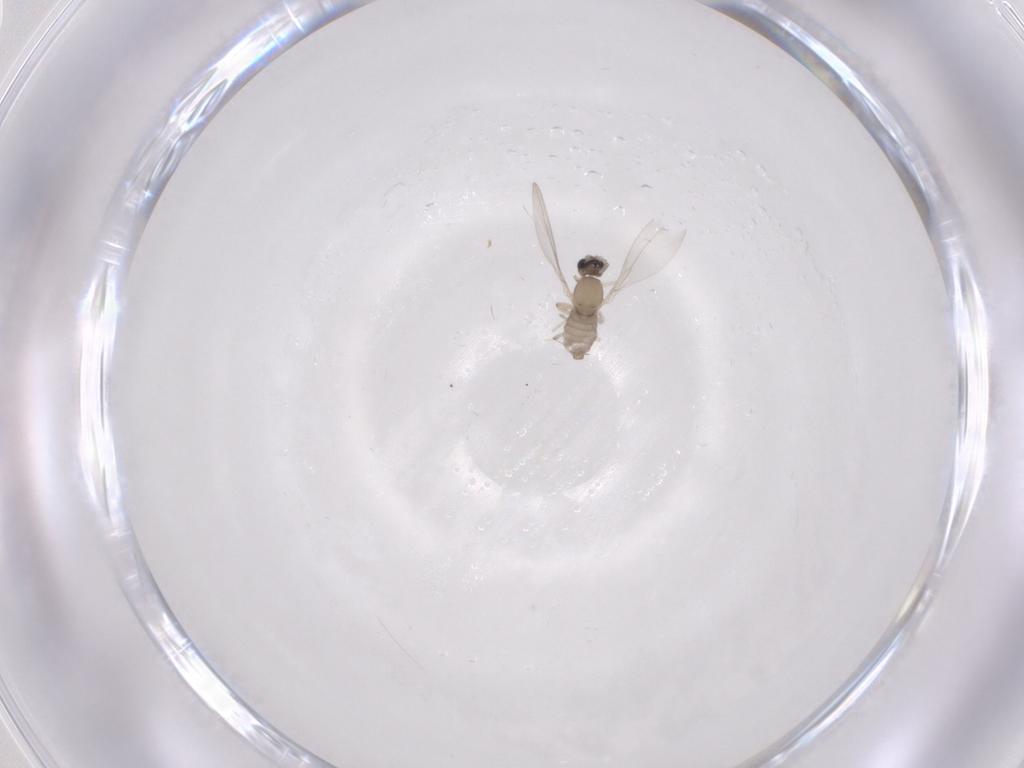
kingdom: Animalia
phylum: Arthropoda
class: Insecta
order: Diptera
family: Cecidomyiidae
